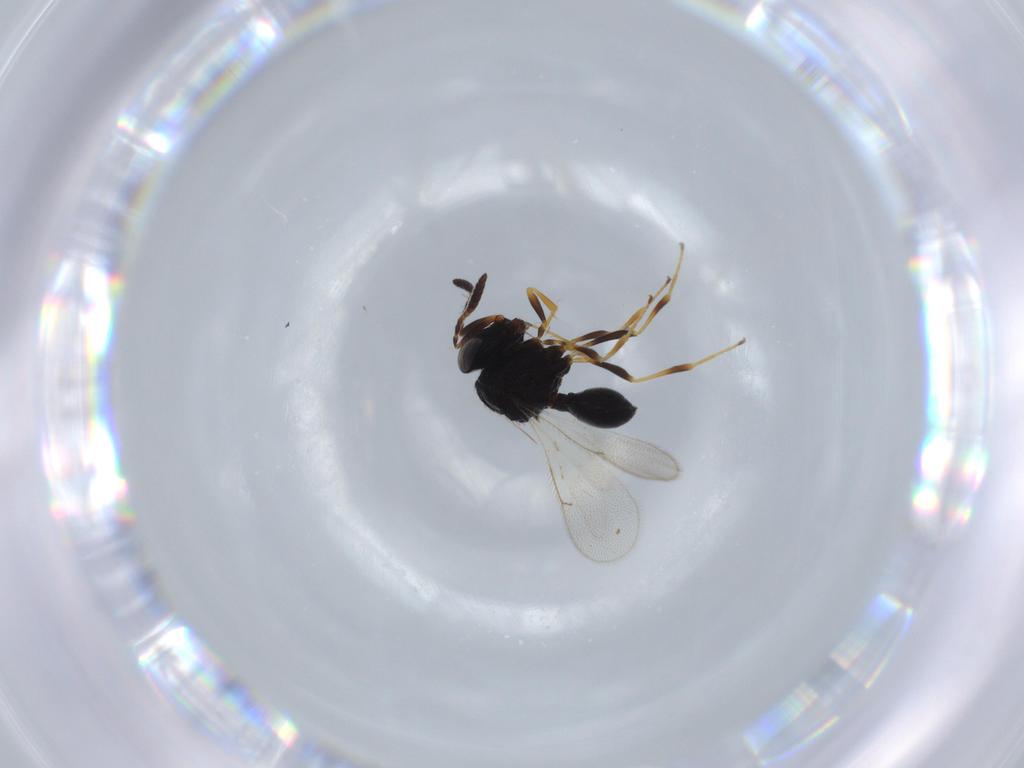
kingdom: Animalia
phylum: Arthropoda
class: Insecta
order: Hymenoptera
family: Scelionidae
